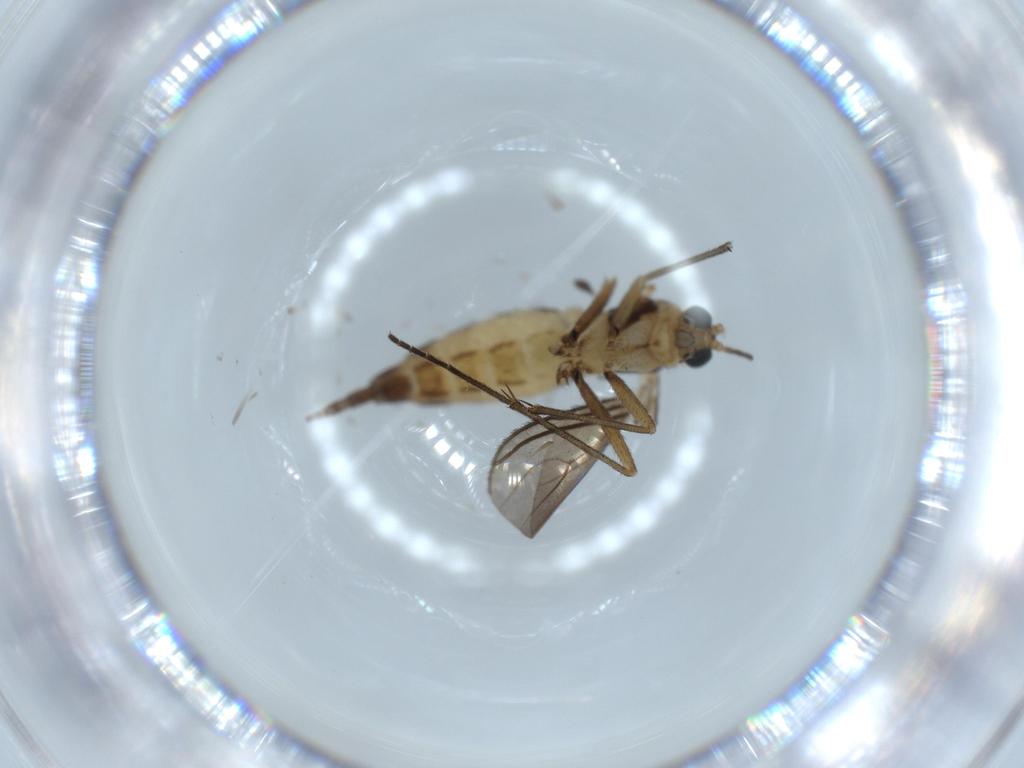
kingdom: Animalia
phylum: Arthropoda
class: Insecta
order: Diptera
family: Sciaridae
